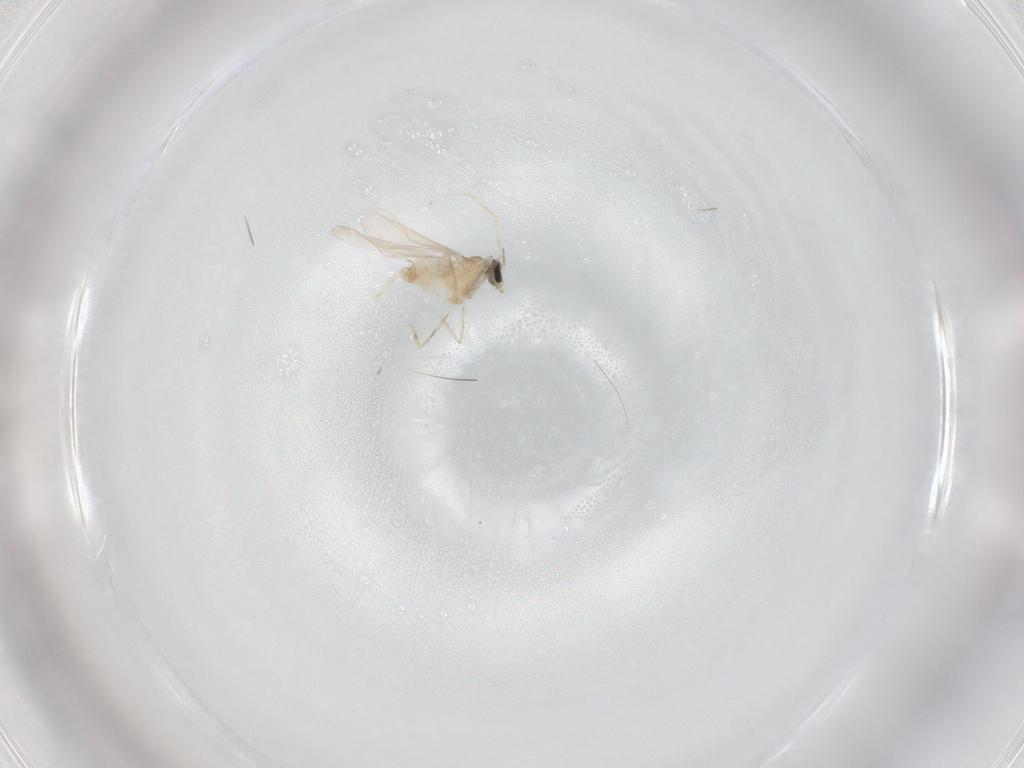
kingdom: Animalia
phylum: Arthropoda
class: Insecta
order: Diptera
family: Cecidomyiidae
